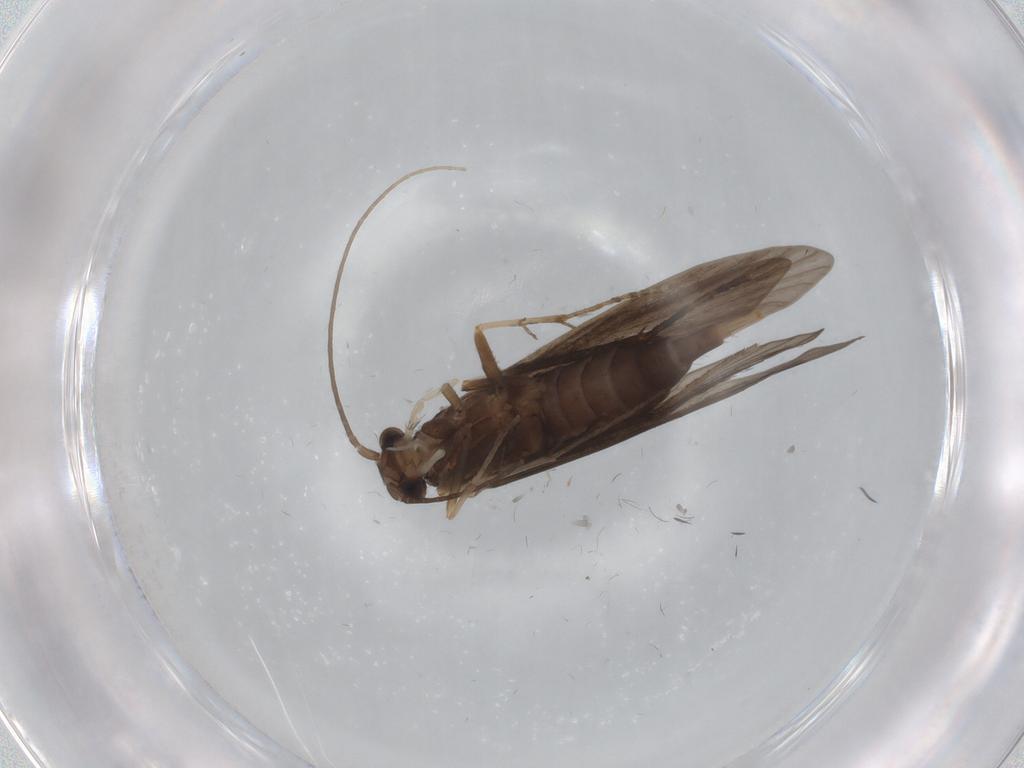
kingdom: Animalia
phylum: Arthropoda
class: Insecta
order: Trichoptera
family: Xiphocentronidae
